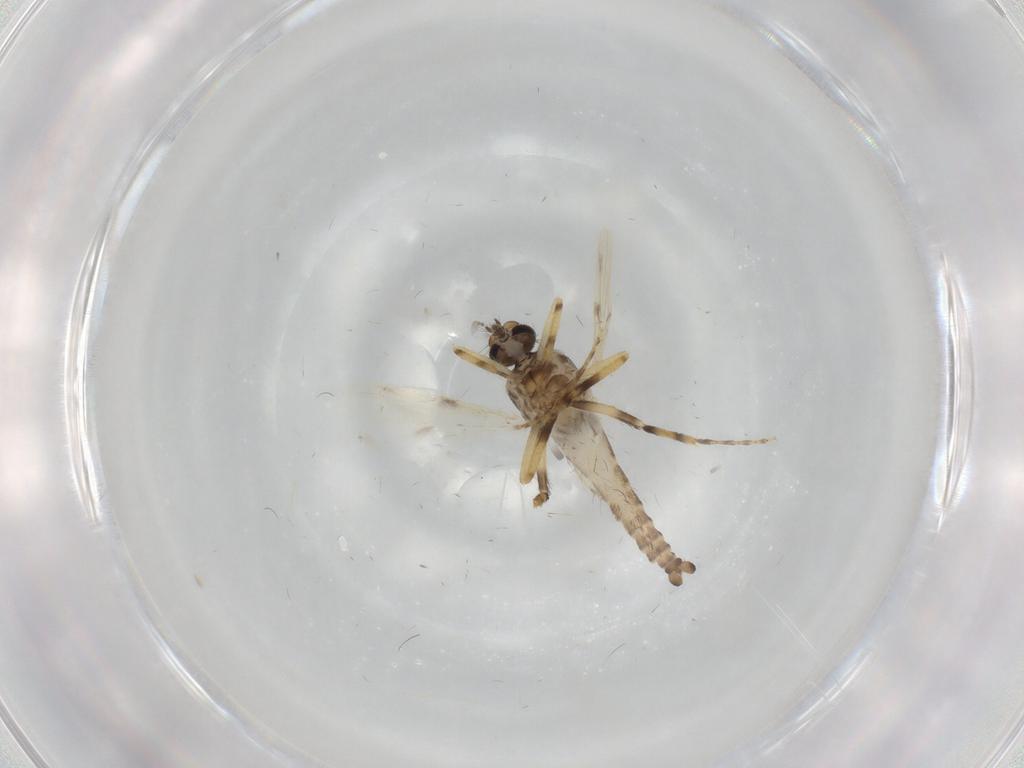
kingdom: Animalia
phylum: Arthropoda
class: Insecta
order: Diptera
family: Ceratopogonidae
